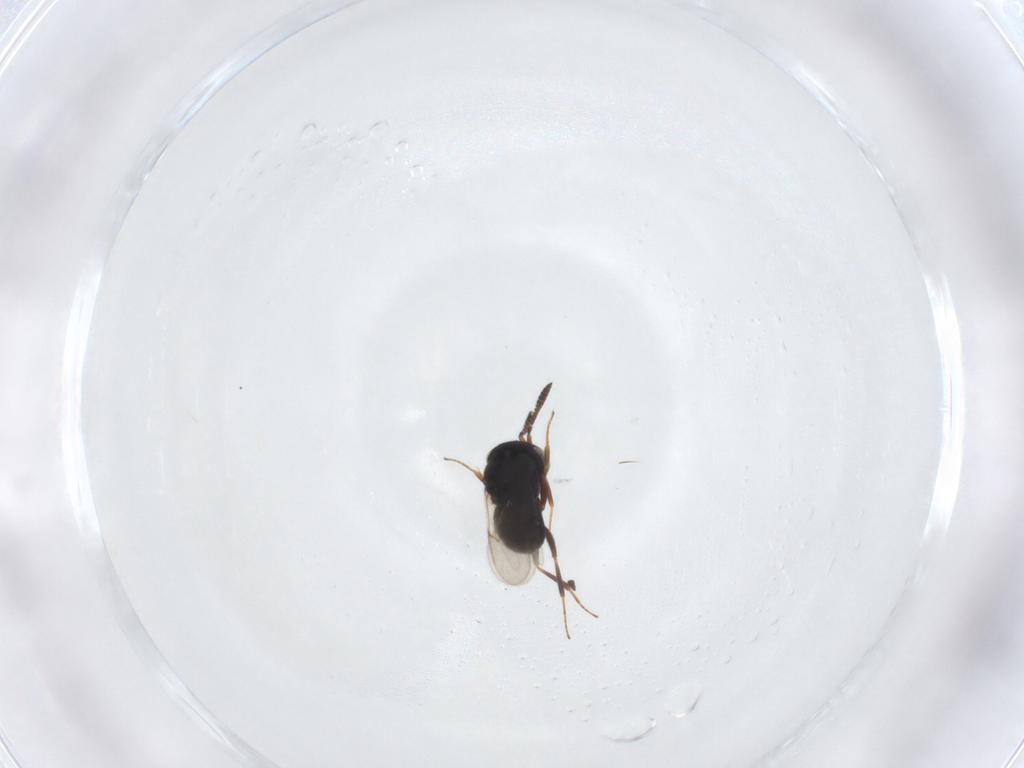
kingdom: Animalia
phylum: Arthropoda
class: Insecta
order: Hymenoptera
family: Scelionidae
